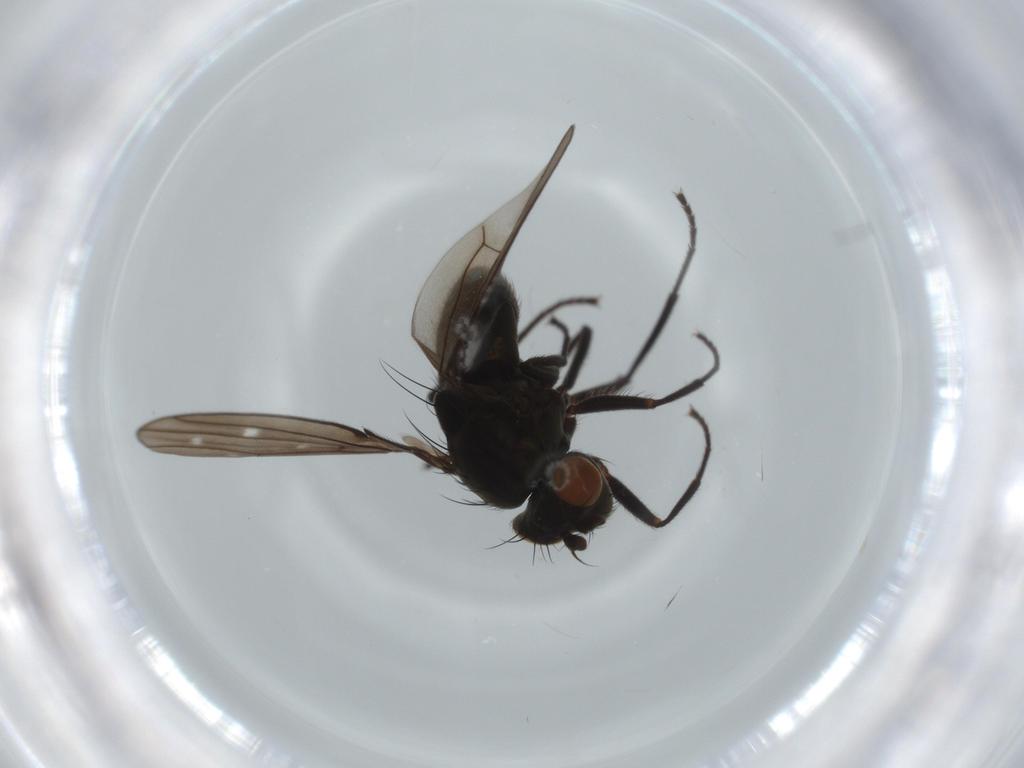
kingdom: Animalia
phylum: Arthropoda
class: Insecta
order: Diptera
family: Ephydridae
